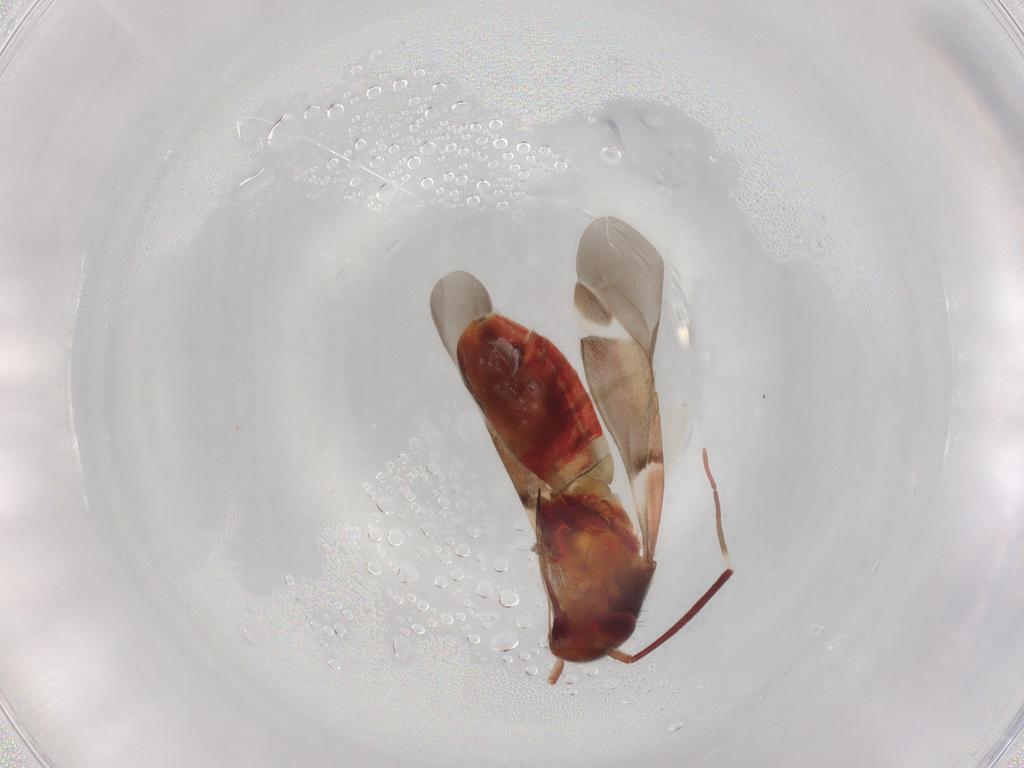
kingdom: Animalia
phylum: Arthropoda
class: Insecta
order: Hemiptera
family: Miridae
